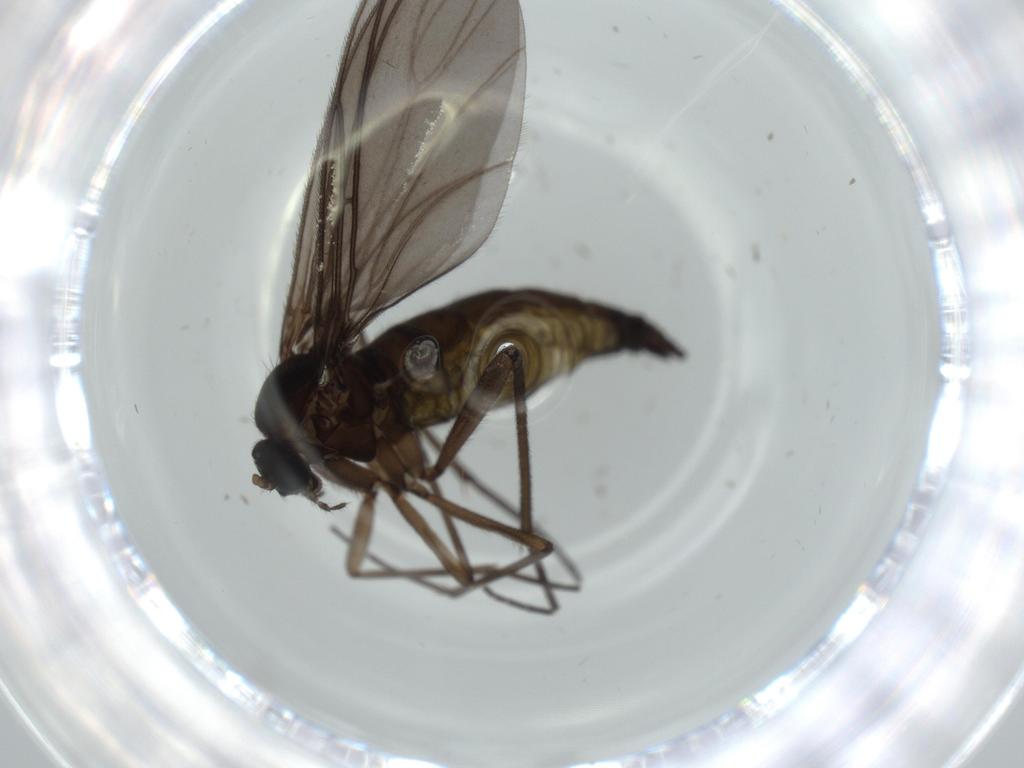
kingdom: Animalia
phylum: Arthropoda
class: Insecta
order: Diptera
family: Sciaridae
